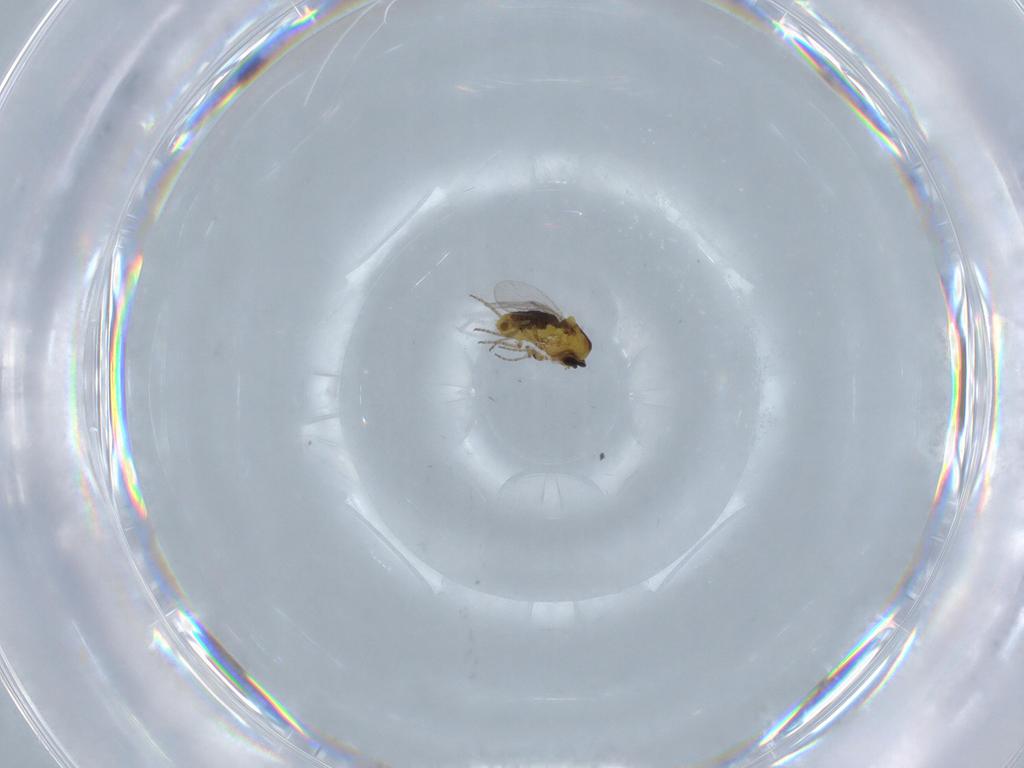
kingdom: Animalia
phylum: Arthropoda
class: Insecta
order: Diptera
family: Ceratopogonidae
